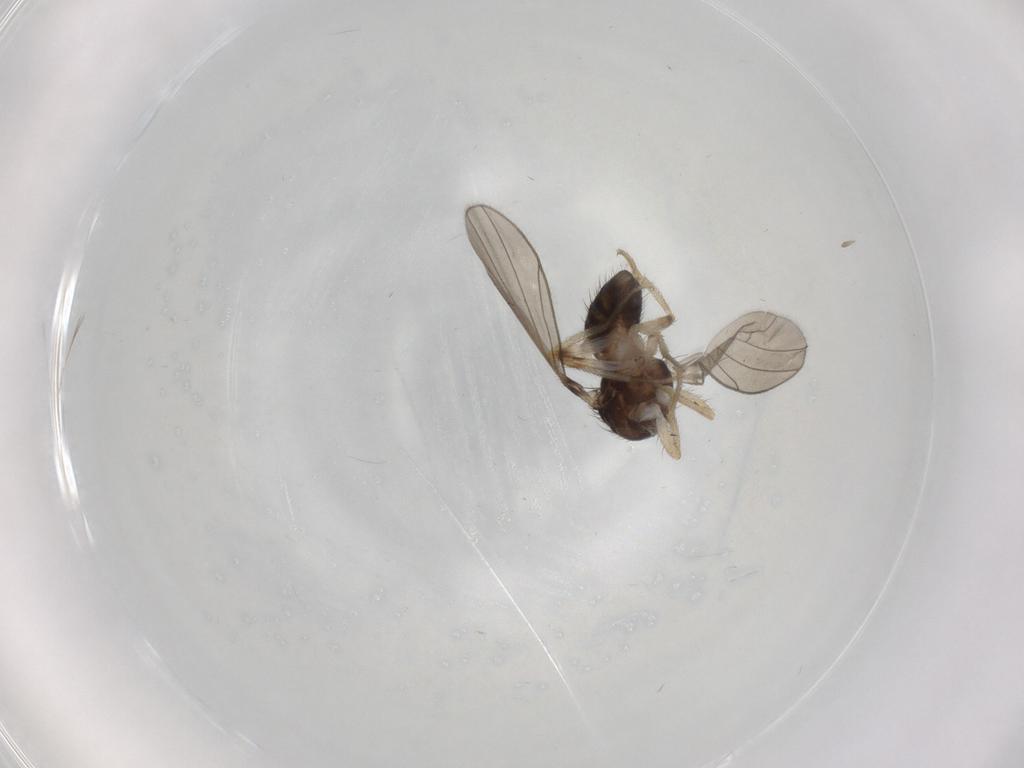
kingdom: Animalia
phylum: Arthropoda
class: Insecta
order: Diptera
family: Drosophilidae
